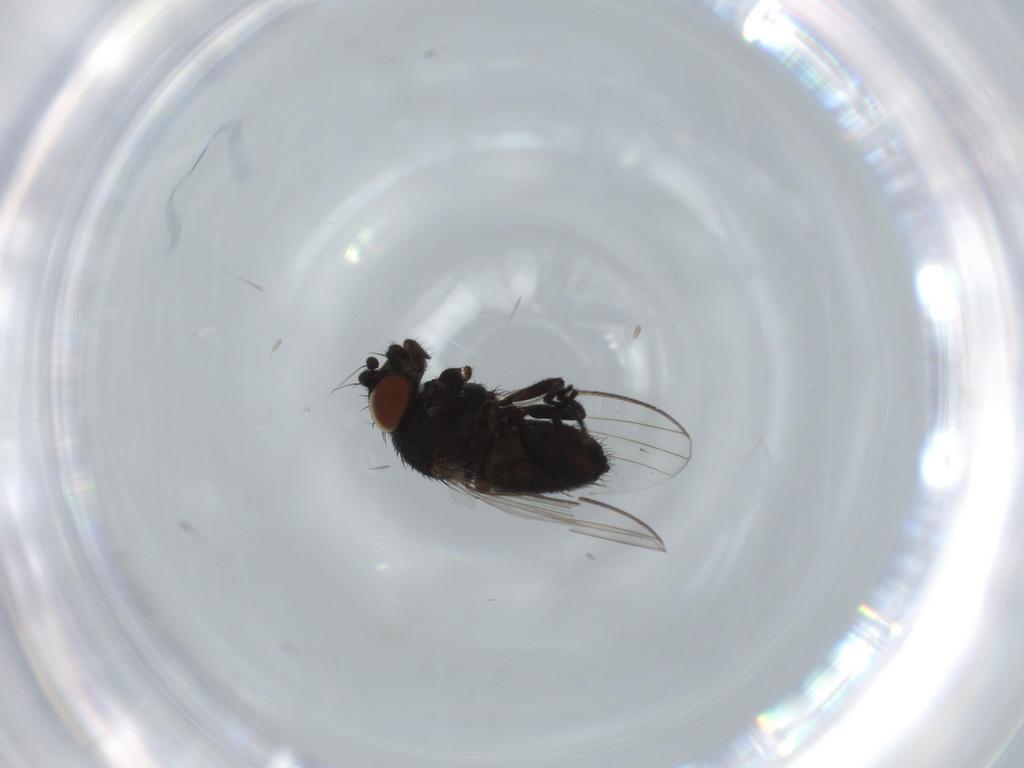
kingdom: Animalia
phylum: Arthropoda
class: Insecta
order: Diptera
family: Milichiidae
